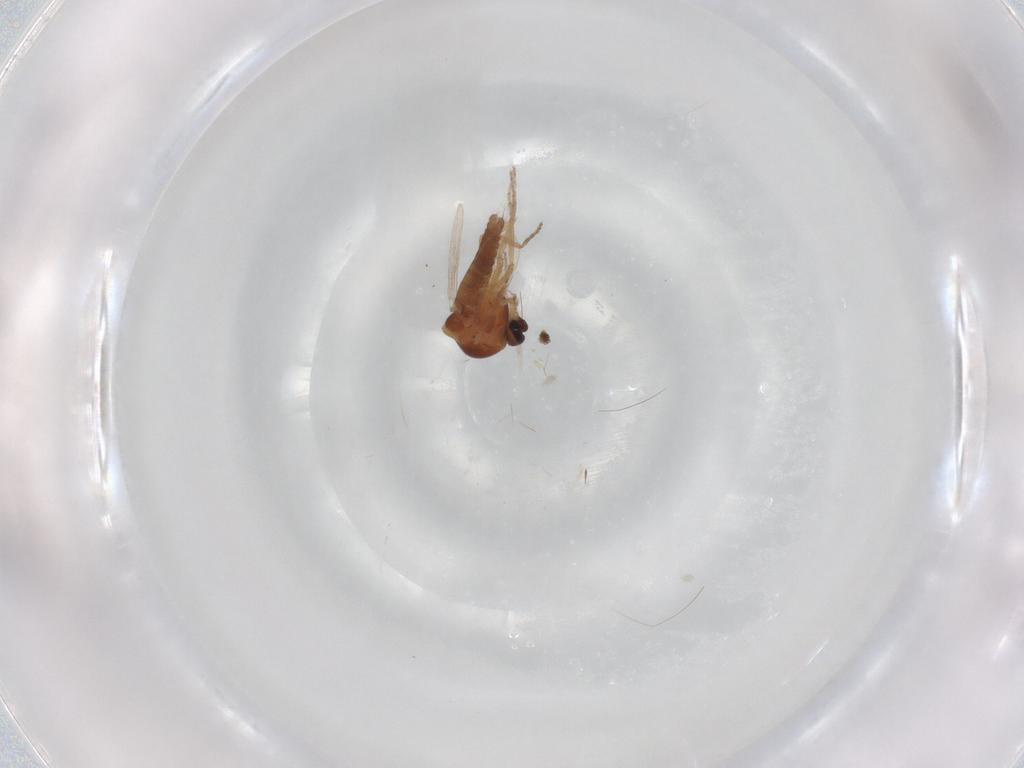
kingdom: Animalia
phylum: Arthropoda
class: Insecta
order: Diptera
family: Ceratopogonidae
